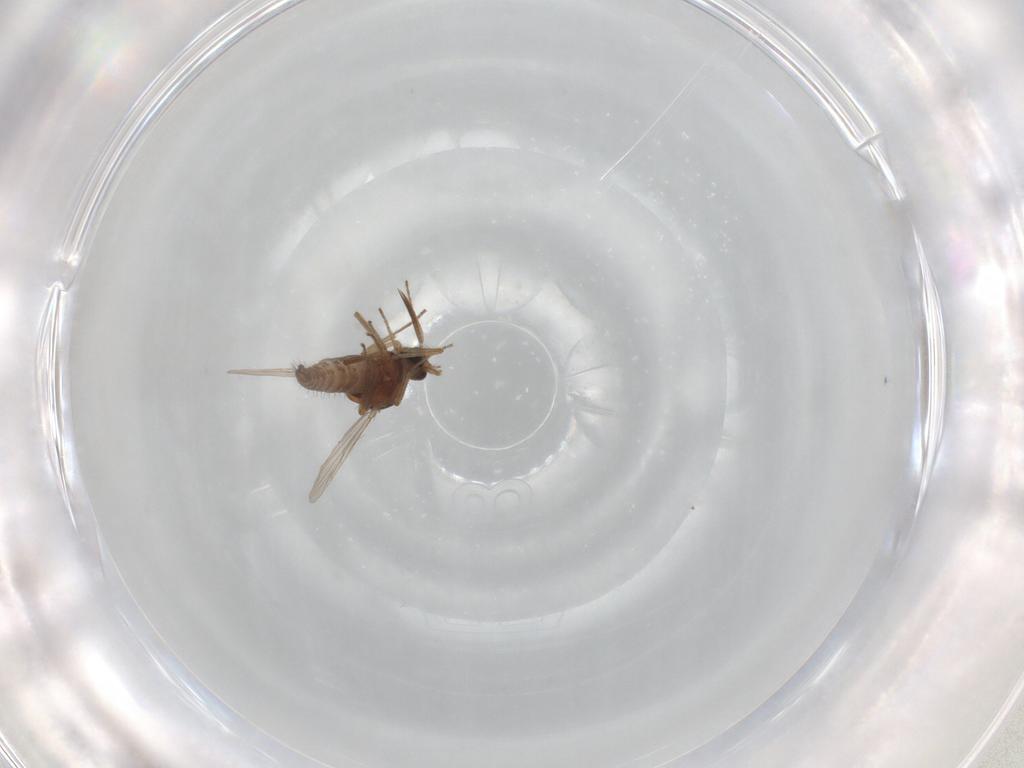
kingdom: Animalia
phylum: Arthropoda
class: Insecta
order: Diptera
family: Ceratopogonidae
